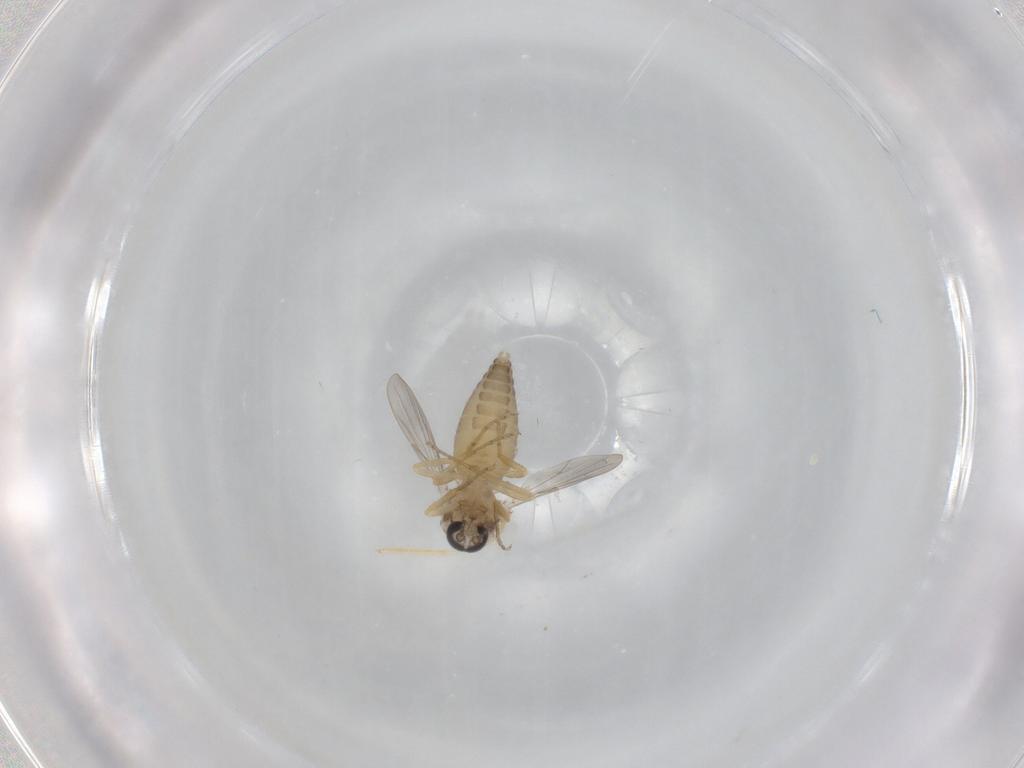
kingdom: Animalia
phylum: Arthropoda
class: Insecta
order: Diptera
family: Ceratopogonidae
